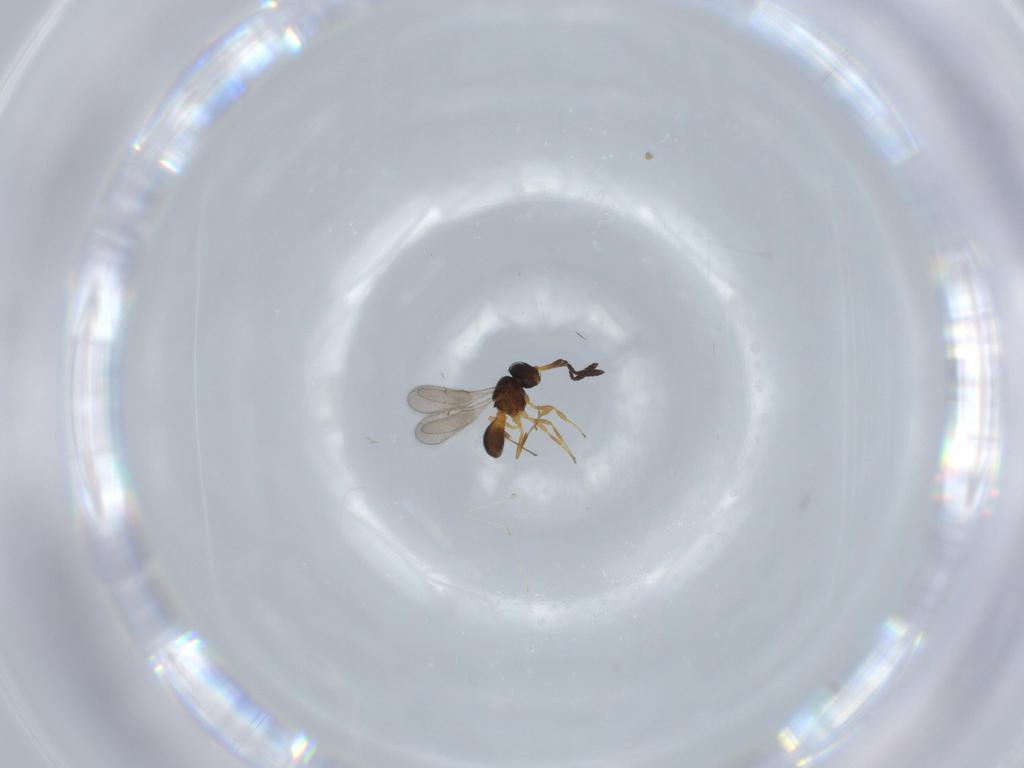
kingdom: Animalia
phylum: Arthropoda
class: Insecta
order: Hymenoptera
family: Scelionidae
